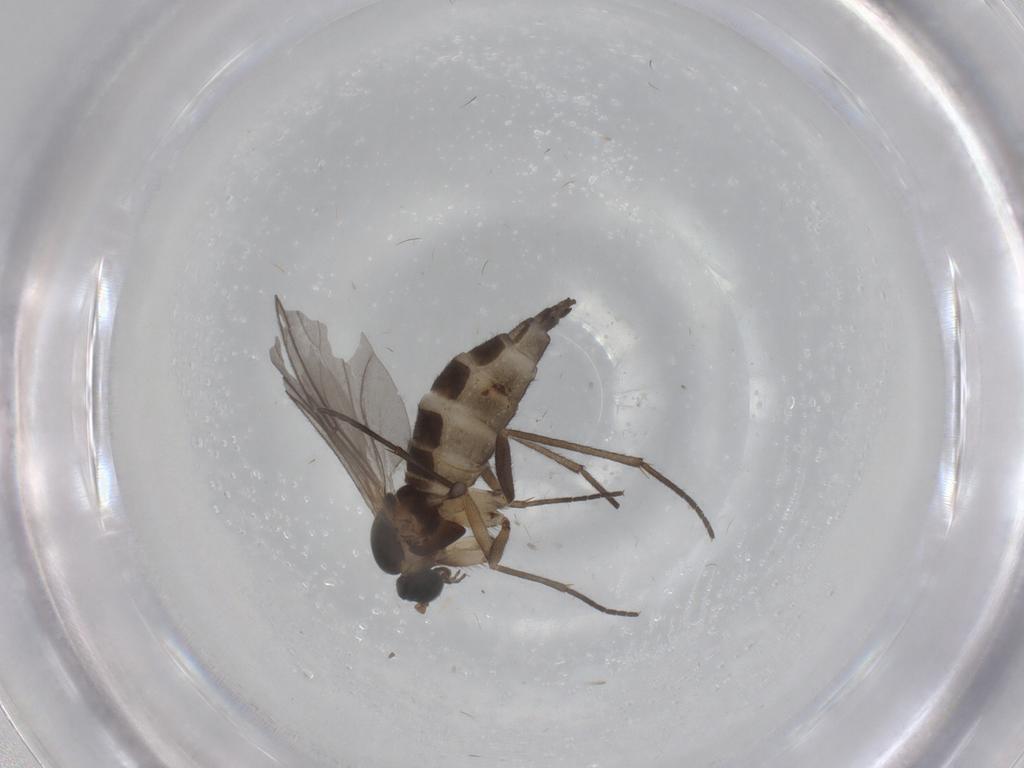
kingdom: Animalia
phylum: Arthropoda
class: Insecta
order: Diptera
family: Sciaridae
